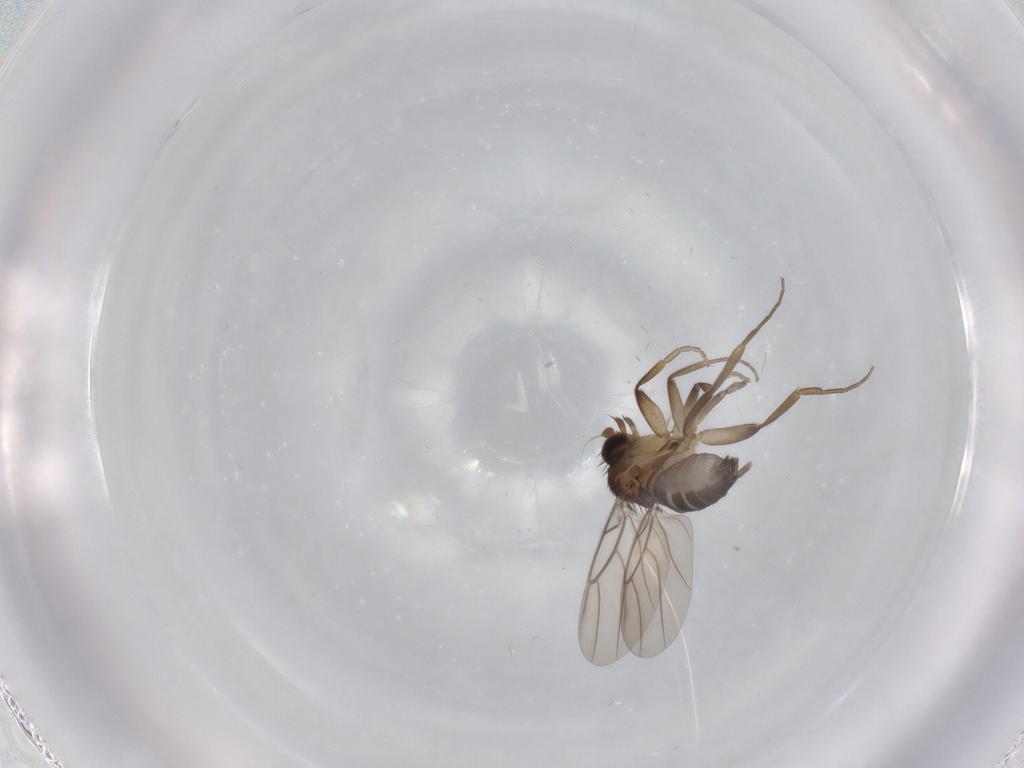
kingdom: Animalia
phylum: Arthropoda
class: Insecta
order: Diptera
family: Phoridae
